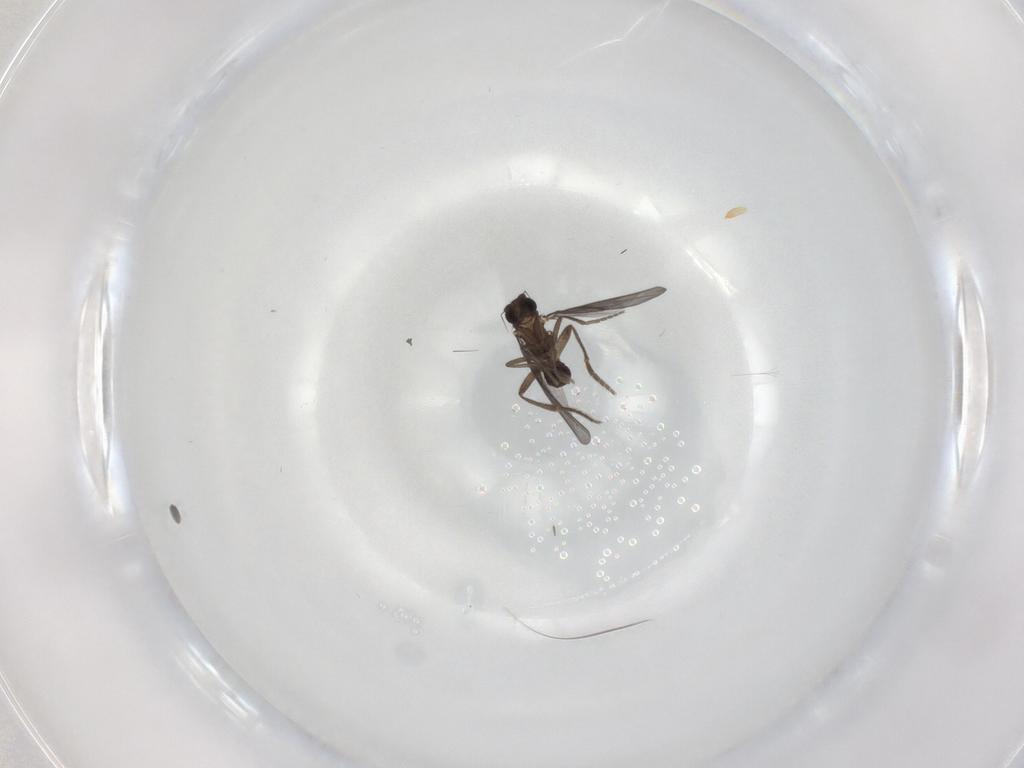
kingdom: Animalia
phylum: Arthropoda
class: Insecta
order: Diptera
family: Phoridae
